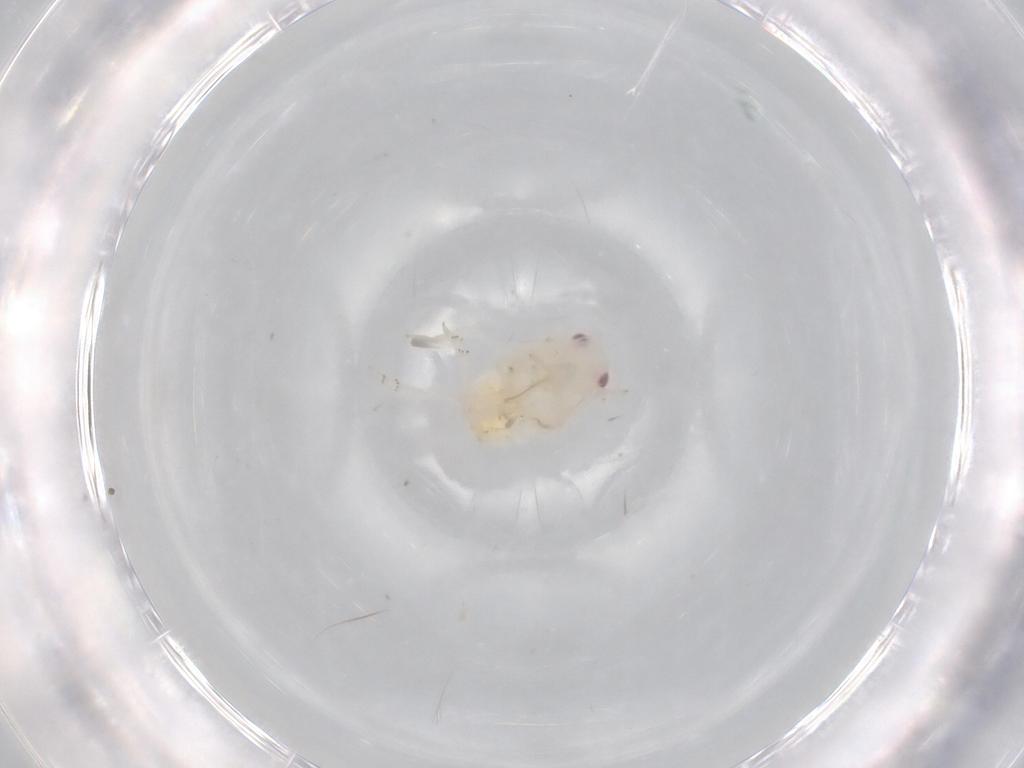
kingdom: Animalia
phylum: Arthropoda
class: Insecta
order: Hemiptera
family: Flatidae
